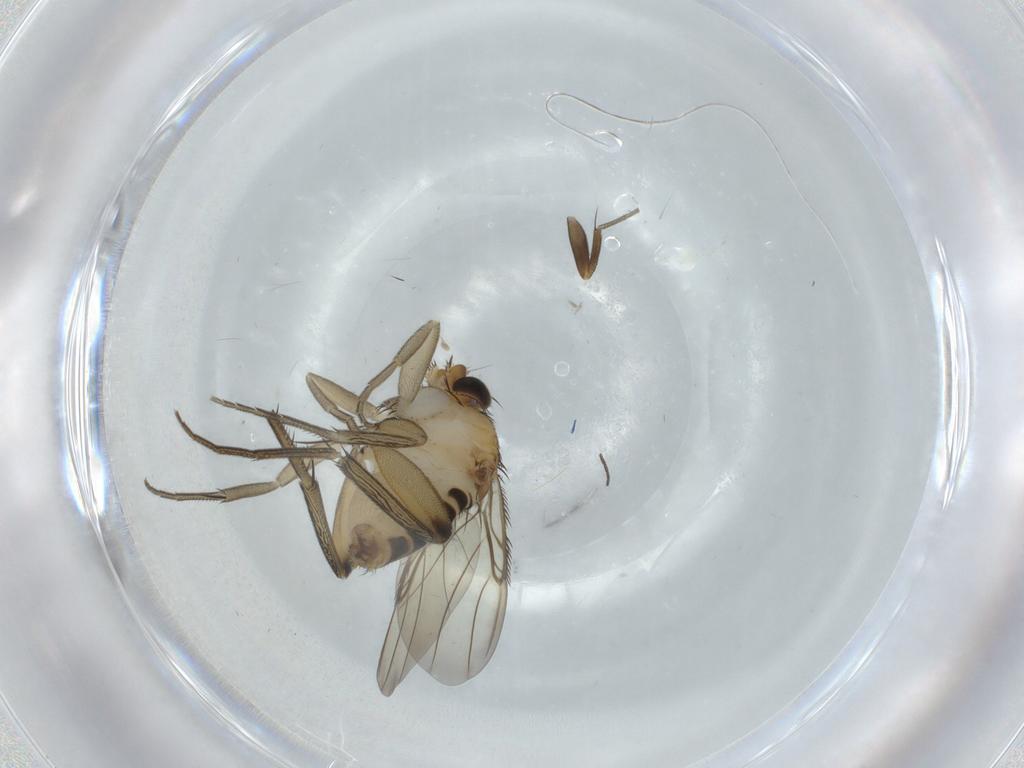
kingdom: Animalia
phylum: Arthropoda
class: Insecta
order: Diptera
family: Phoridae
